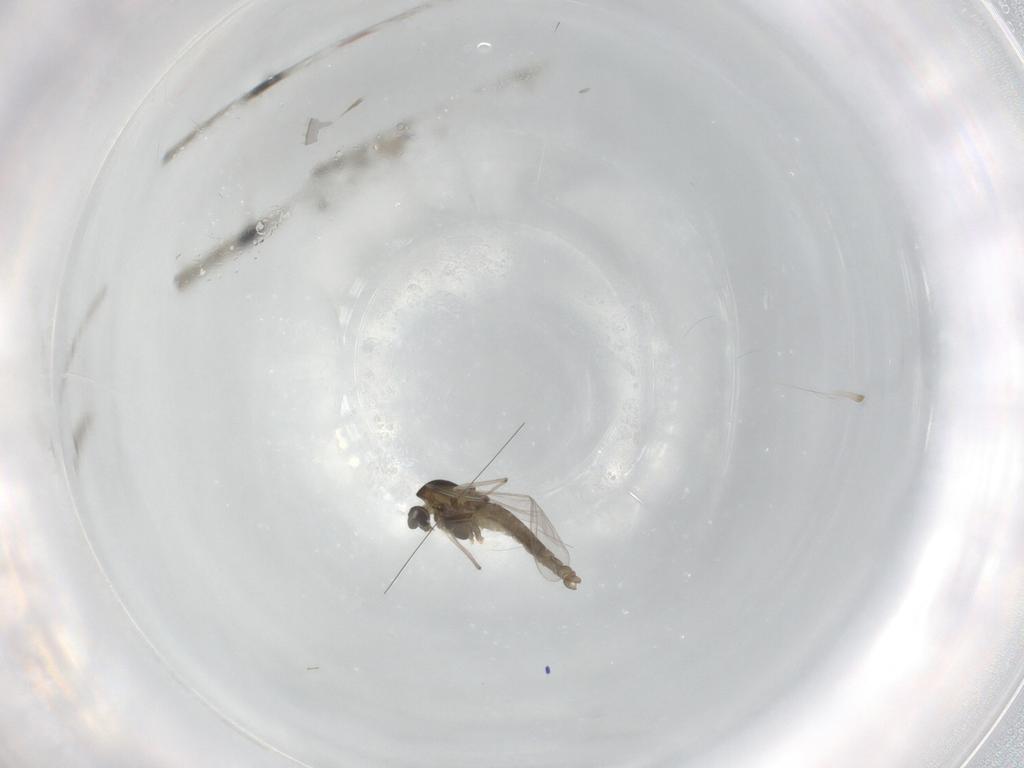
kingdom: Animalia
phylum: Arthropoda
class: Insecta
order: Diptera
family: Chironomidae
